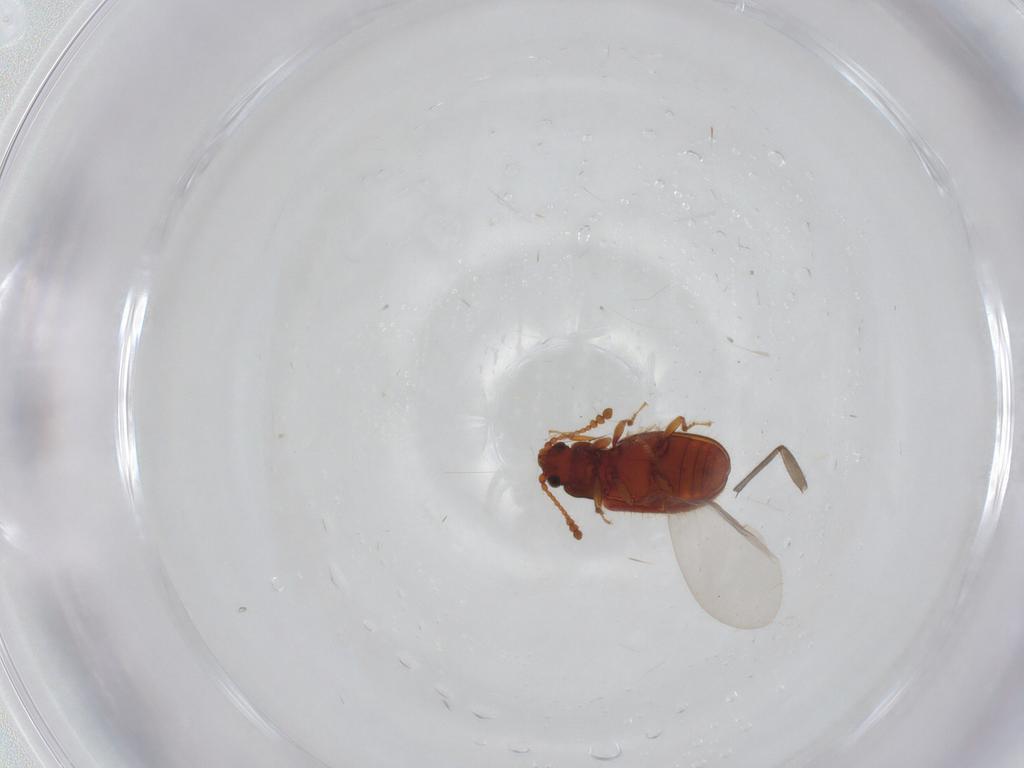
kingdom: Animalia
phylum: Arthropoda
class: Insecta
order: Coleoptera
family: Cryptophagidae
